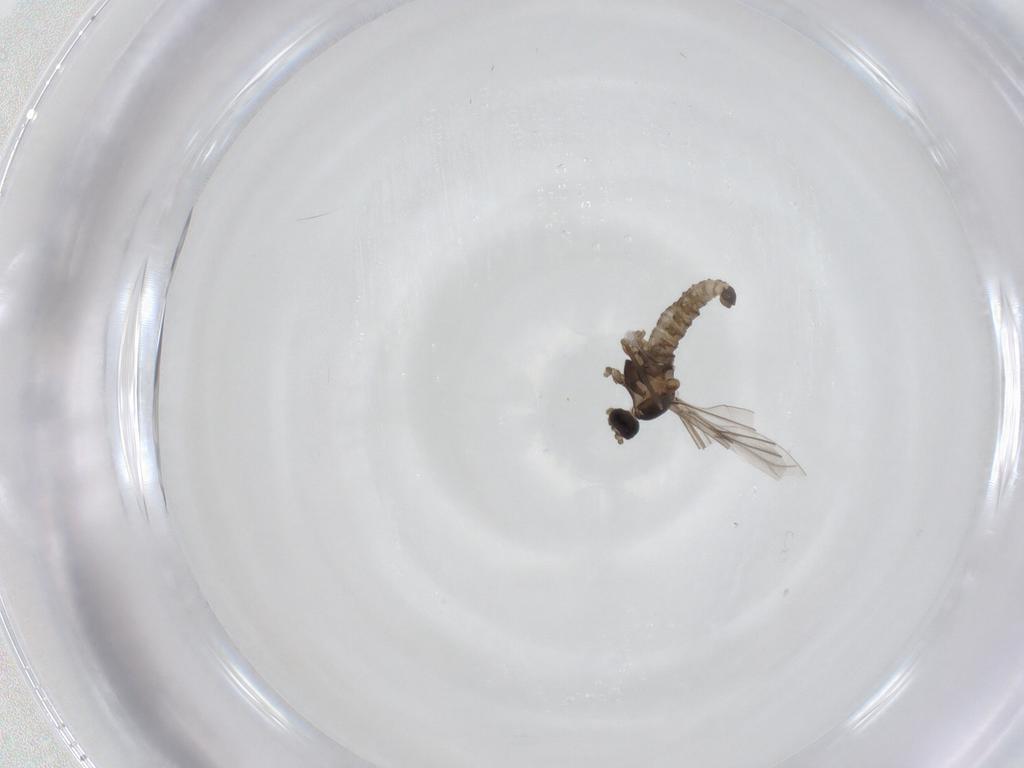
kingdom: Animalia
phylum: Arthropoda
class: Insecta
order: Diptera
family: Cecidomyiidae
